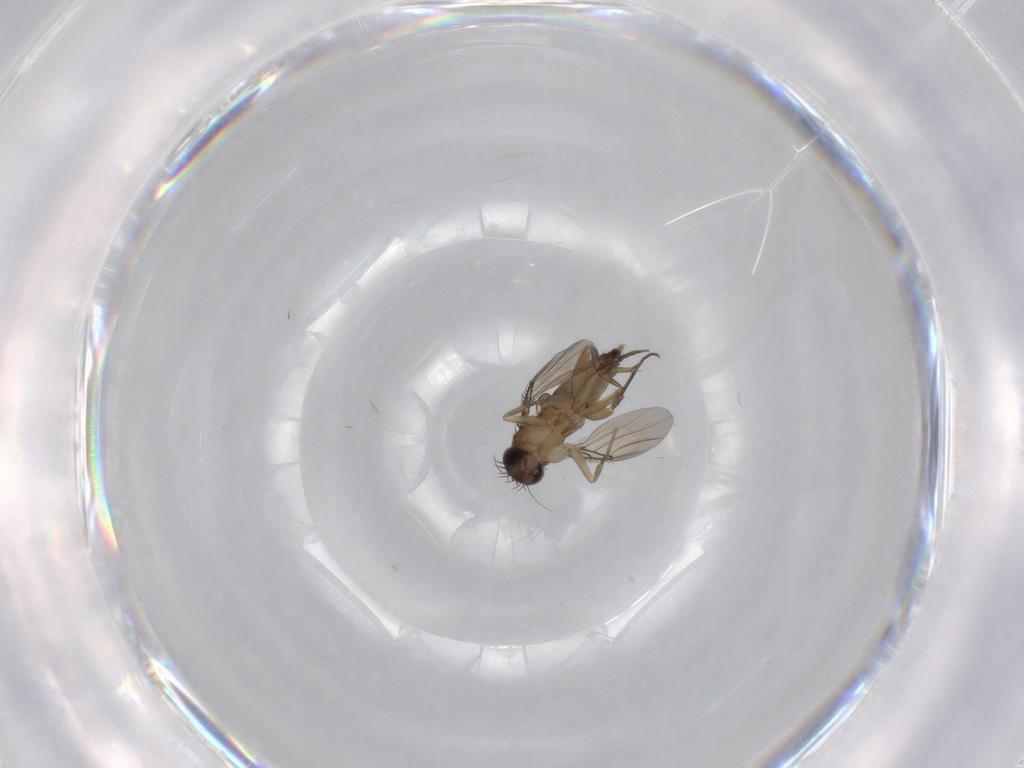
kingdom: Animalia
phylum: Arthropoda
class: Insecta
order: Diptera
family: Phoridae
